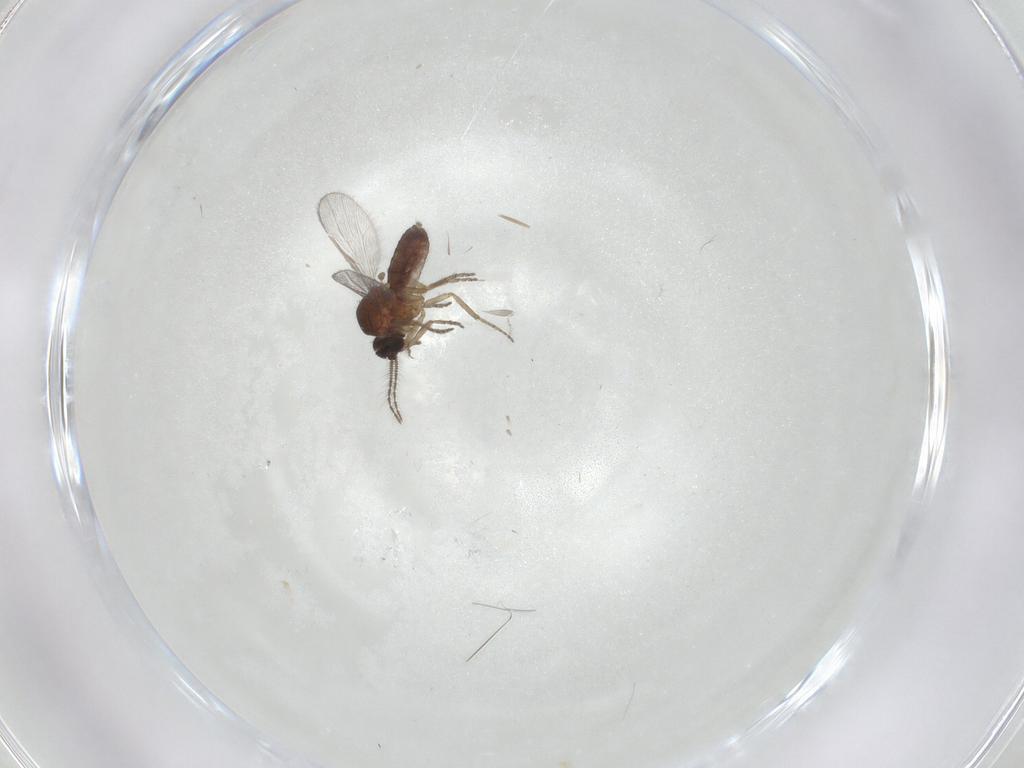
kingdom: Animalia
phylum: Arthropoda
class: Insecta
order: Diptera
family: Ceratopogonidae
